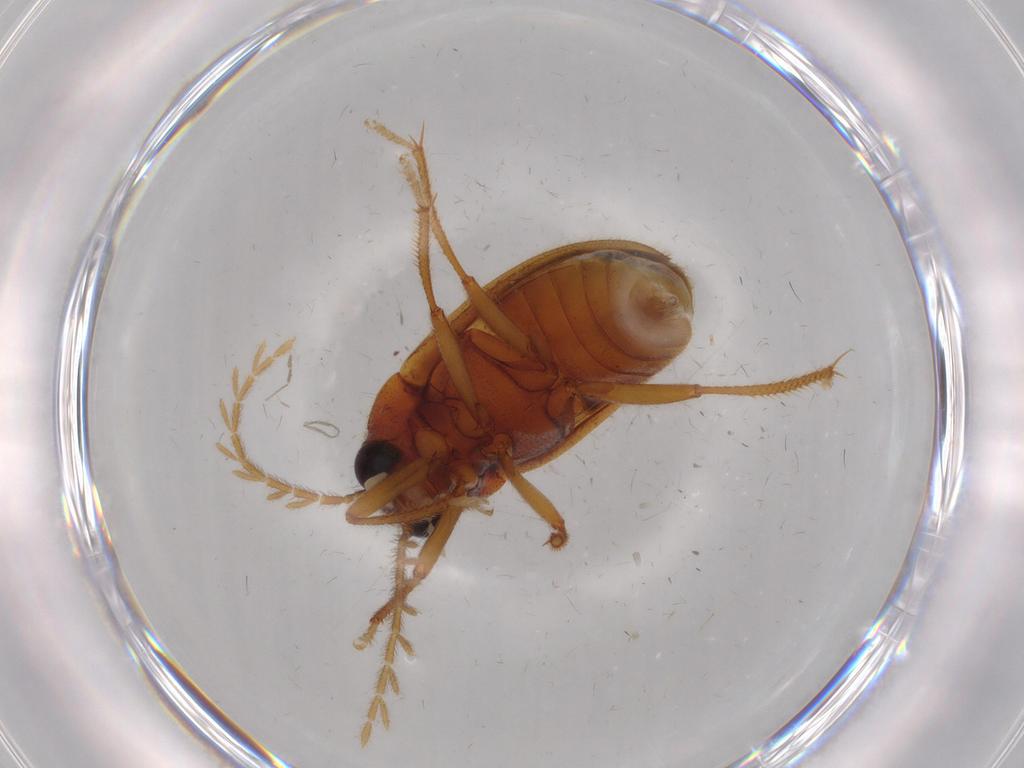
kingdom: Animalia
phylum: Arthropoda
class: Insecta
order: Coleoptera
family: Ptilodactylidae
